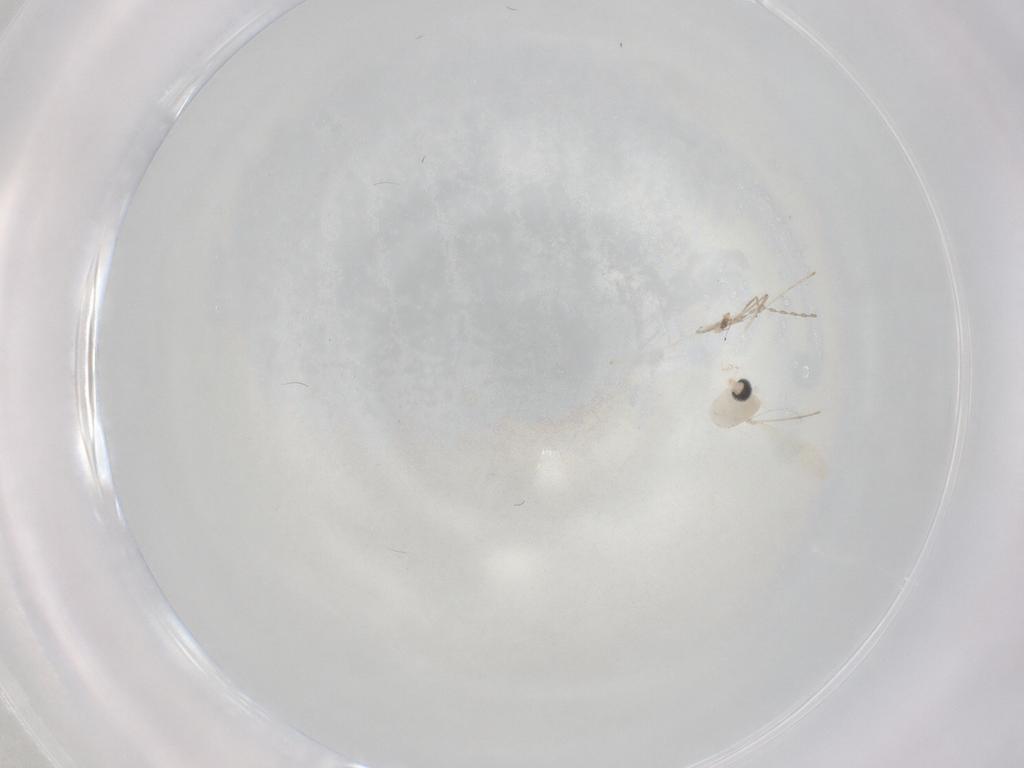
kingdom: Animalia
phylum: Arthropoda
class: Insecta
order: Diptera
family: Cecidomyiidae
